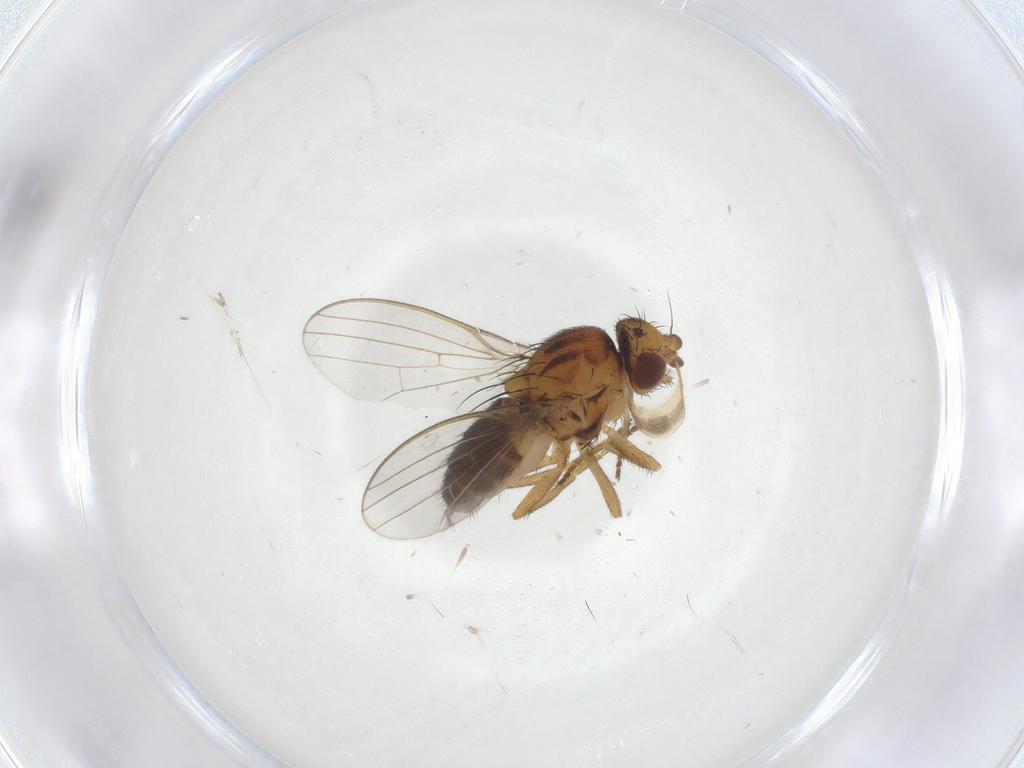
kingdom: Animalia
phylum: Arthropoda
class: Insecta
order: Diptera
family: Milichiidae
